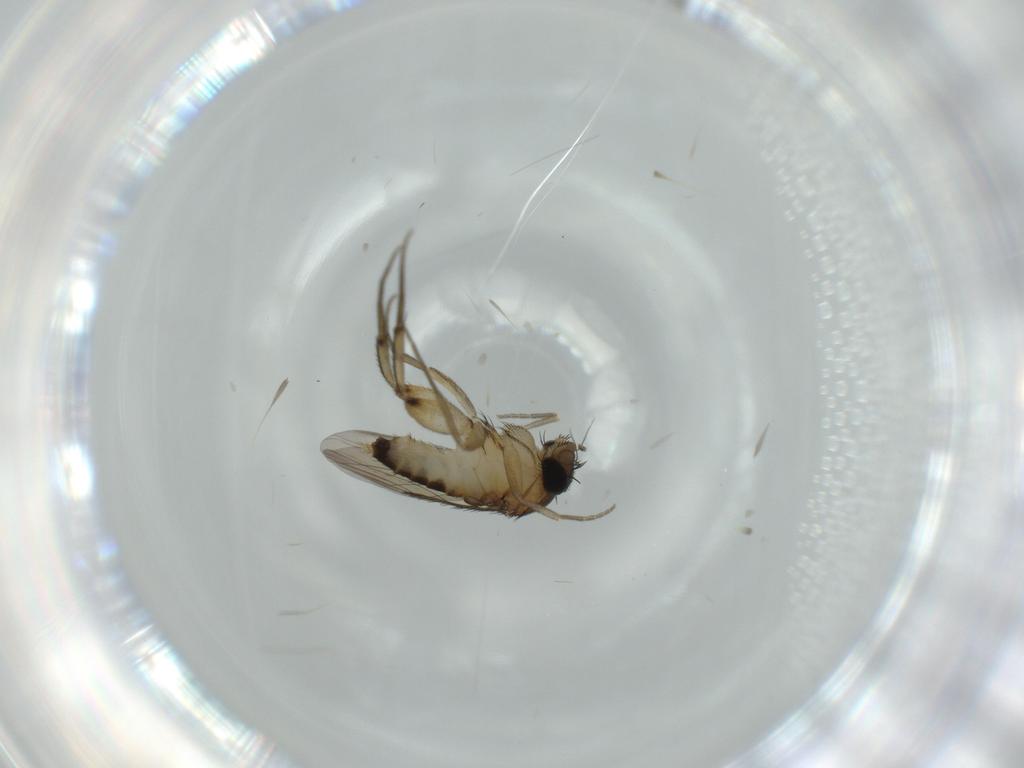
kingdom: Animalia
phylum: Arthropoda
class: Insecta
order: Diptera
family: Phoridae
